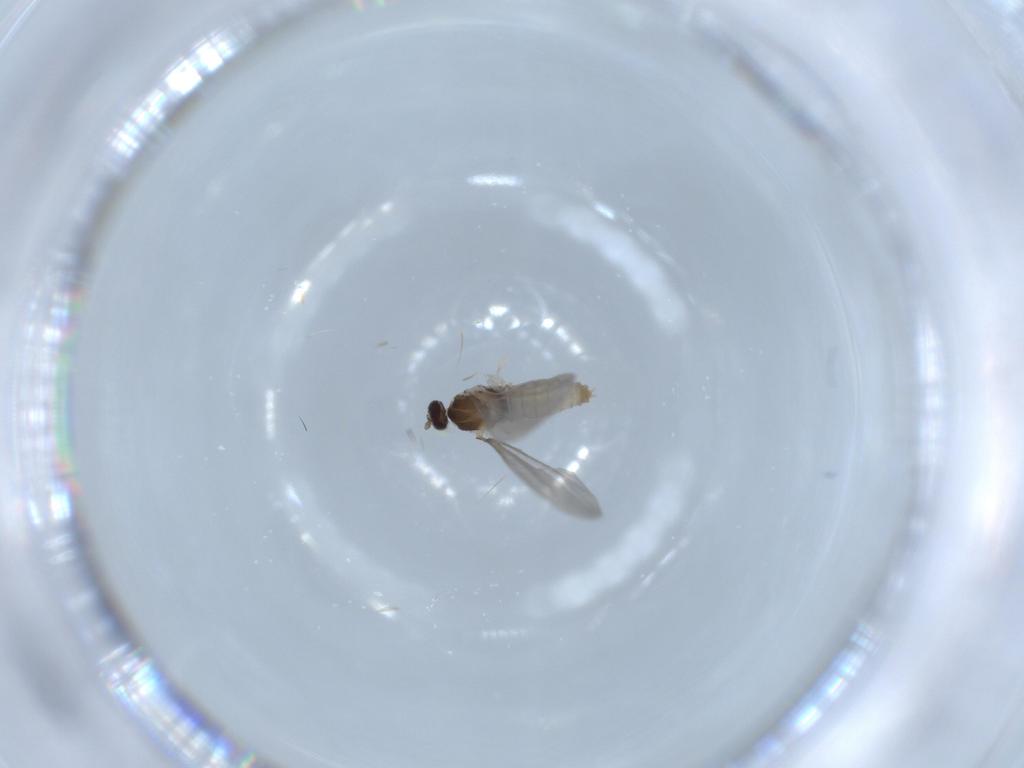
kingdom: Animalia
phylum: Arthropoda
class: Insecta
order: Diptera
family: Cecidomyiidae
